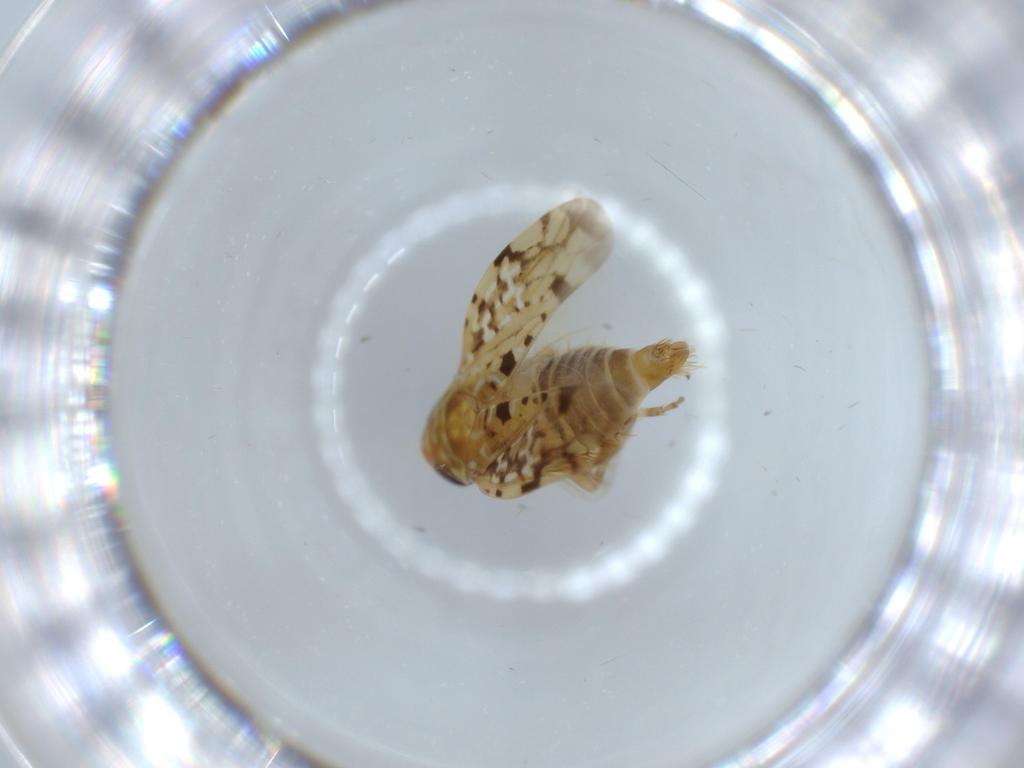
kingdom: Animalia
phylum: Arthropoda
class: Insecta
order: Hemiptera
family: Cicadellidae
